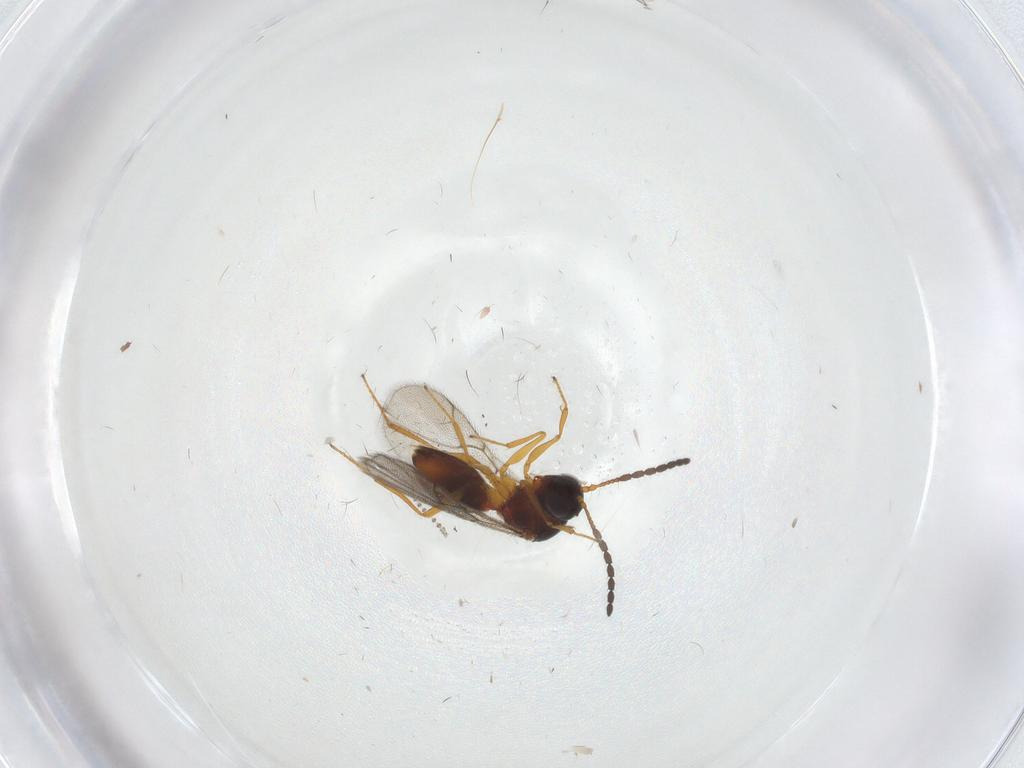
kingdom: Animalia
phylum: Arthropoda
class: Insecta
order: Hymenoptera
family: Figitidae
